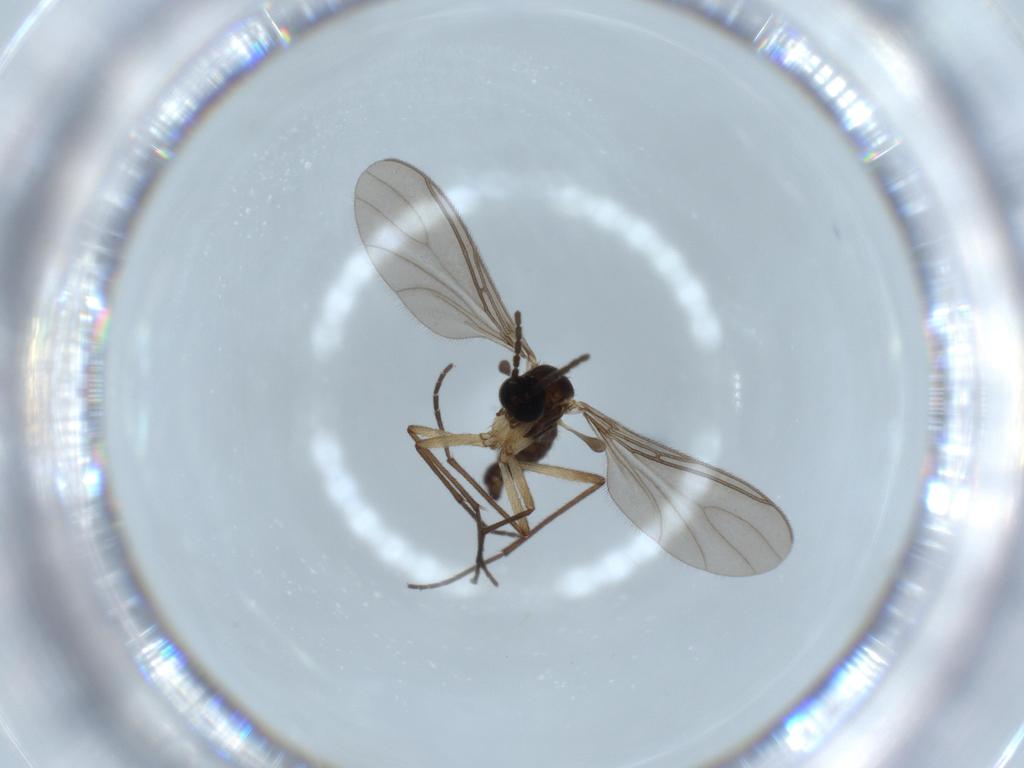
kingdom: Animalia
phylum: Arthropoda
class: Insecta
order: Diptera
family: Sciaridae
